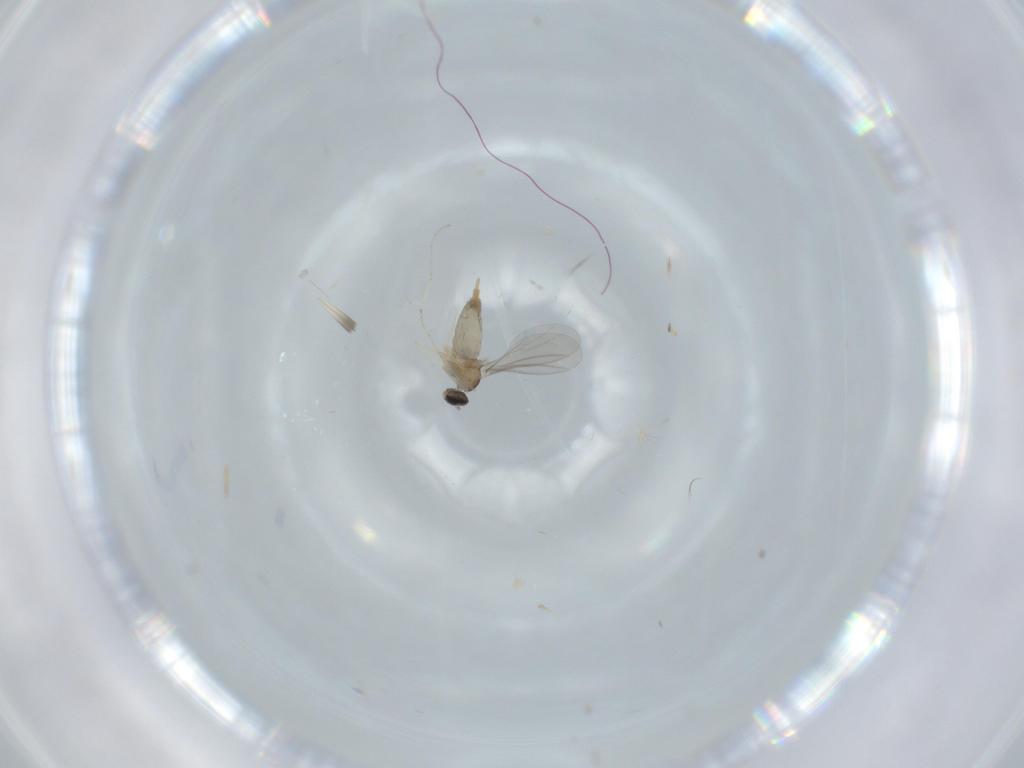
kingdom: Animalia
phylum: Arthropoda
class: Insecta
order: Diptera
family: Cecidomyiidae
